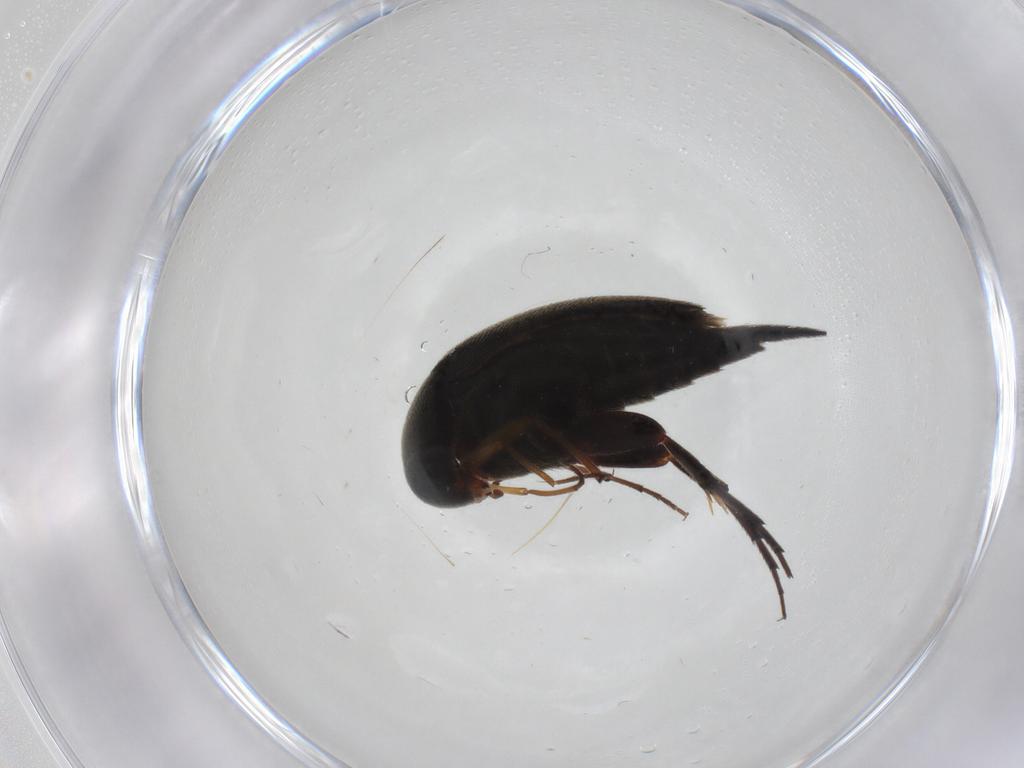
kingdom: Animalia
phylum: Arthropoda
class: Insecta
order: Coleoptera
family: Mordellidae
